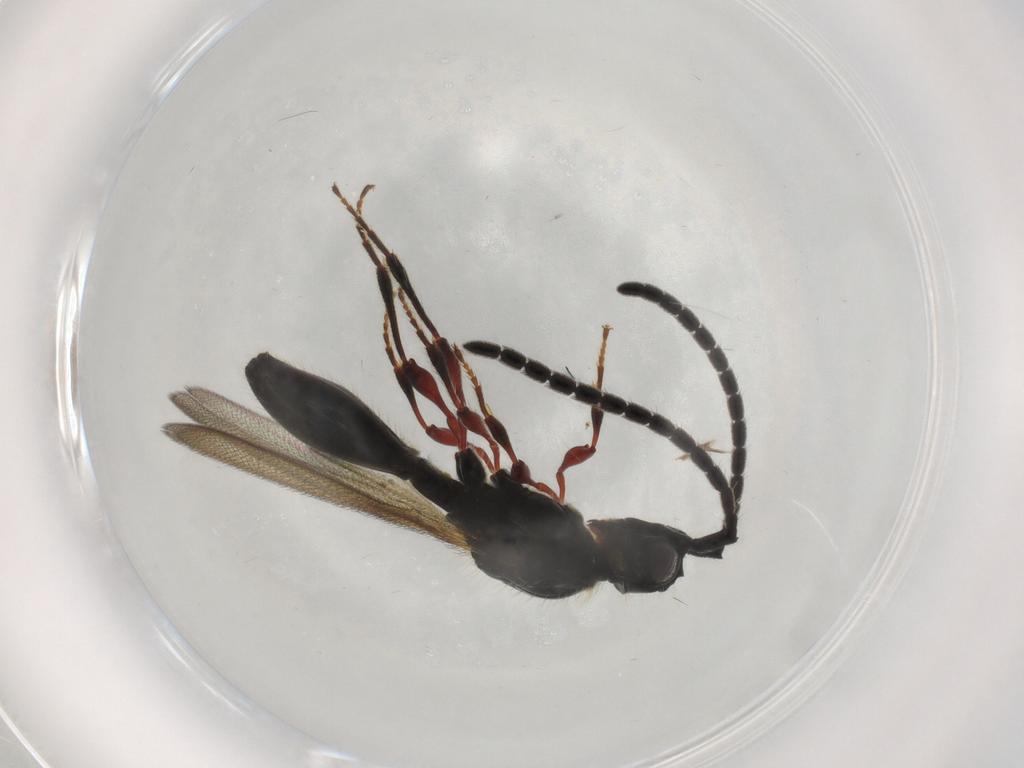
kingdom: Animalia
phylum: Arthropoda
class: Insecta
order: Hymenoptera
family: Diapriidae
